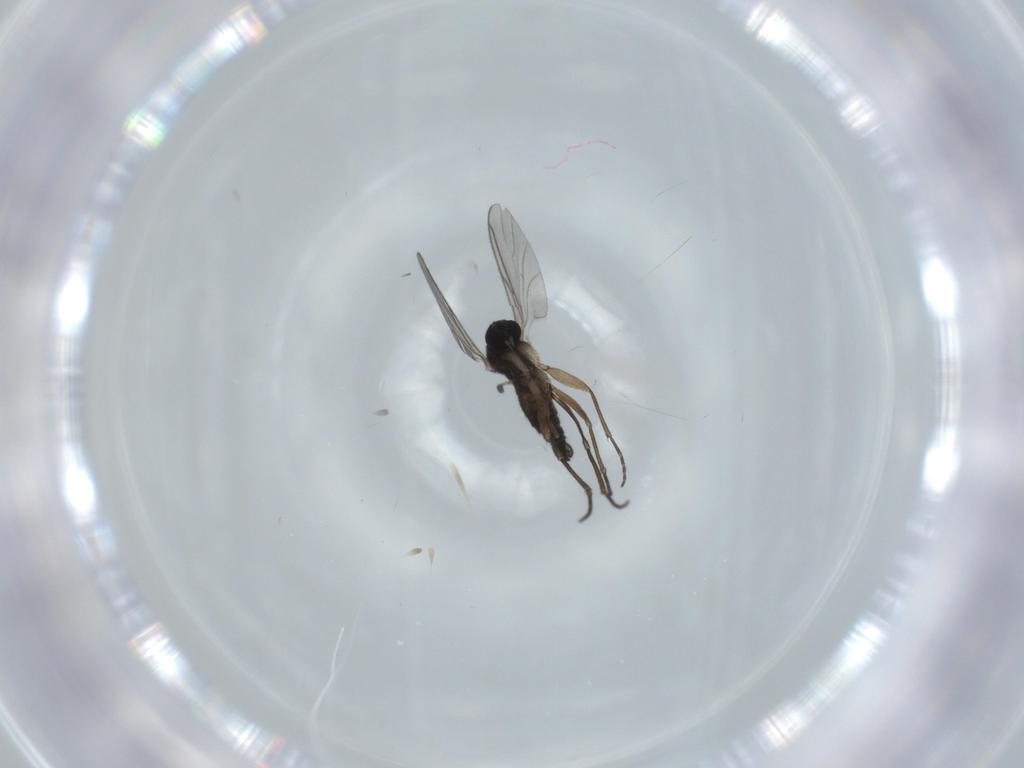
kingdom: Animalia
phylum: Arthropoda
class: Insecta
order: Diptera
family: Sciaridae
